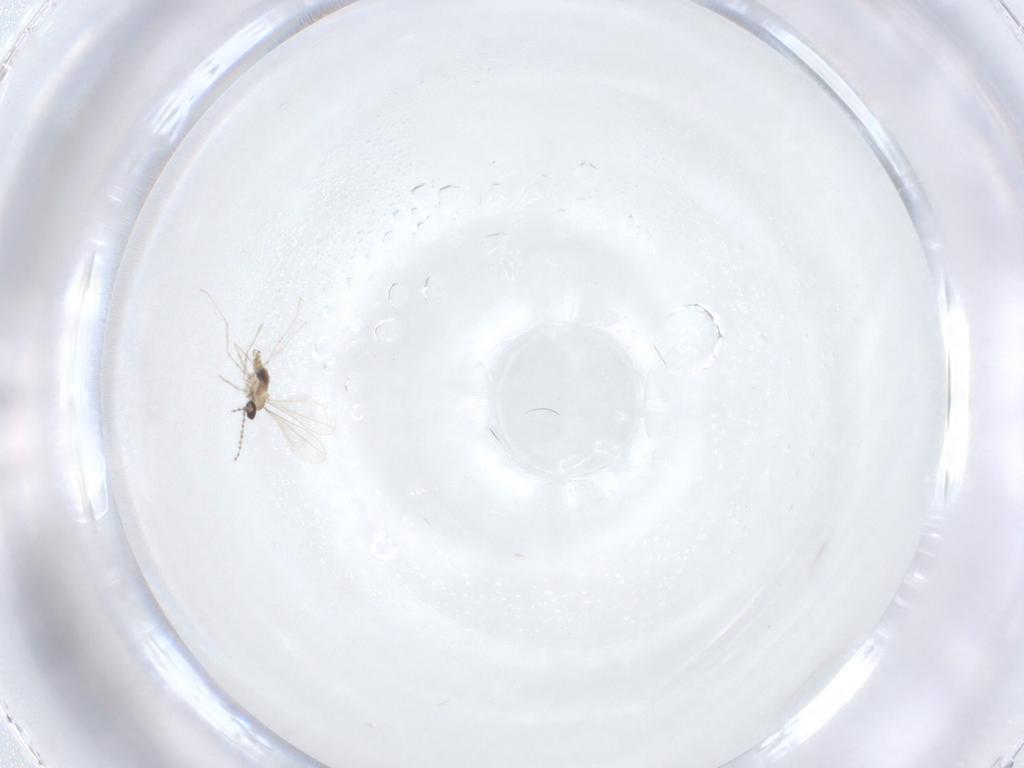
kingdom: Animalia
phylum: Arthropoda
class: Insecta
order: Diptera
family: Cecidomyiidae
